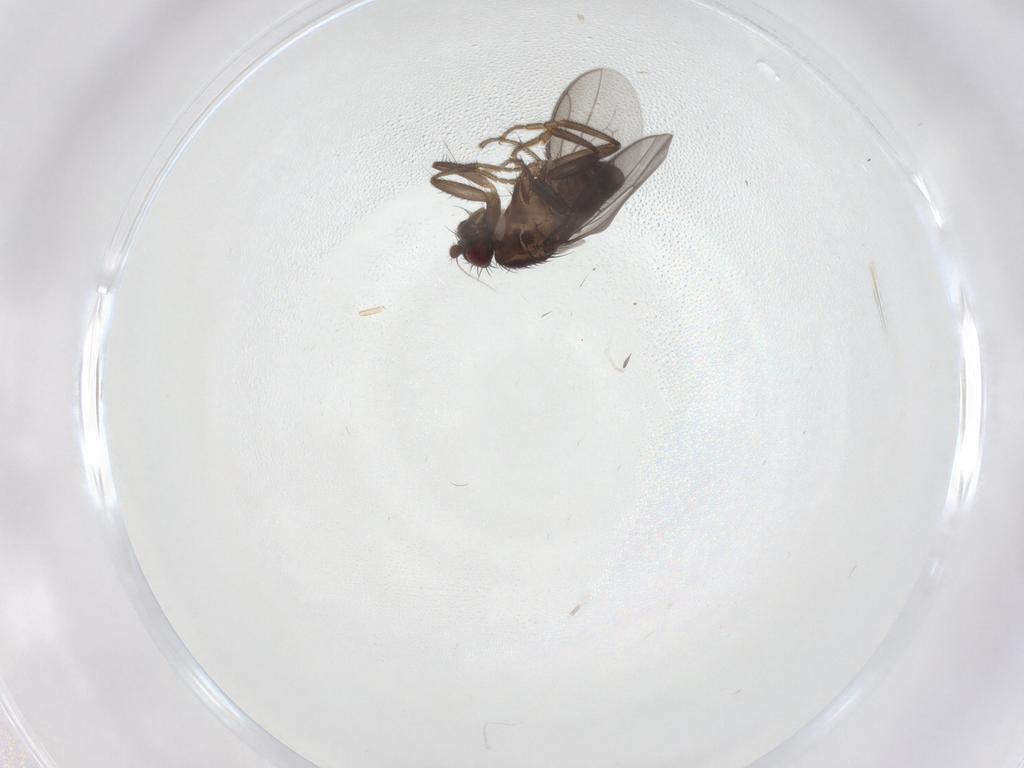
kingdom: Animalia
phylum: Arthropoda
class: Insecta
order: Diptera
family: Sphaeroceridae
